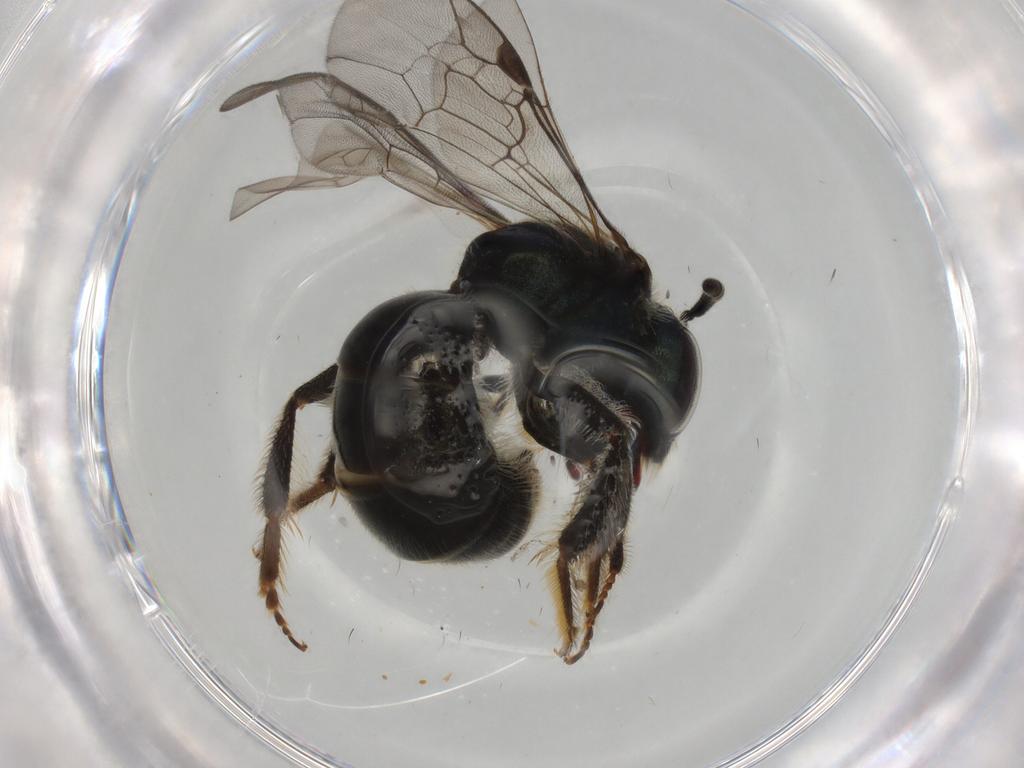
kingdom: Animalia
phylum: Arthropoda
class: Insecta
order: Hymenoptera
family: Halictidae
